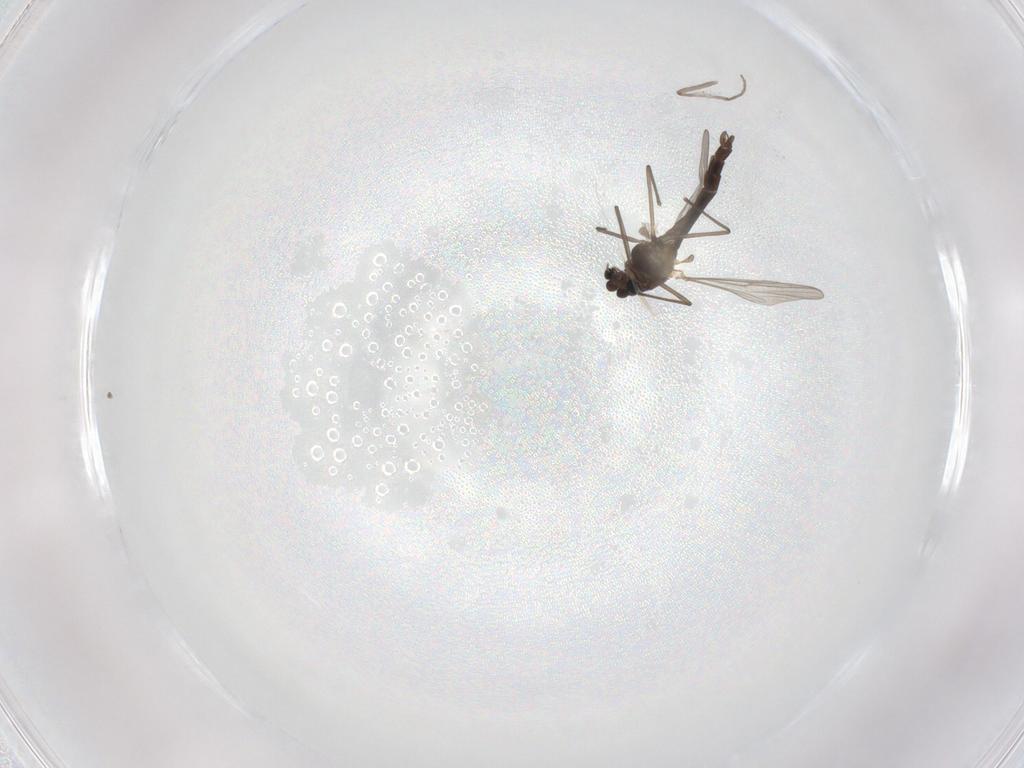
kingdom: Animalia
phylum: Arthropoda
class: Insecta
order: Diptera
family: Chironomidae
